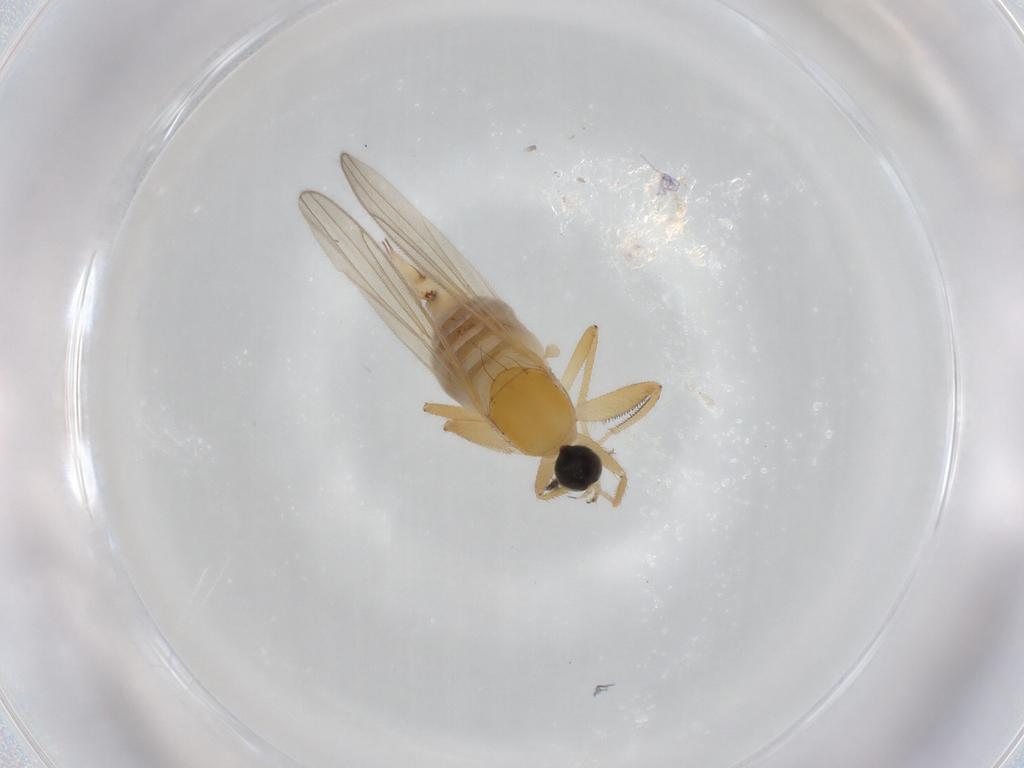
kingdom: Animalia
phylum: Arthropoda
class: Insecta
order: Diptera
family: Hybotidae
